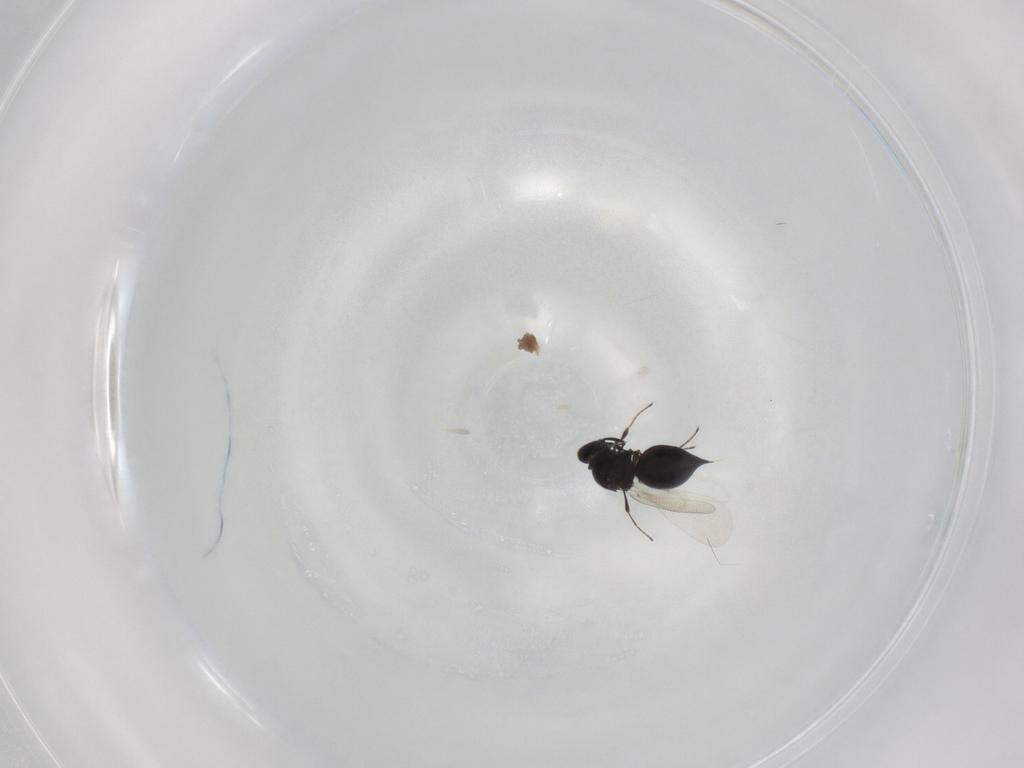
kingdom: Animalia
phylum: Arthropoda
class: Insecta
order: Hymenoptera
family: Platygastridae
